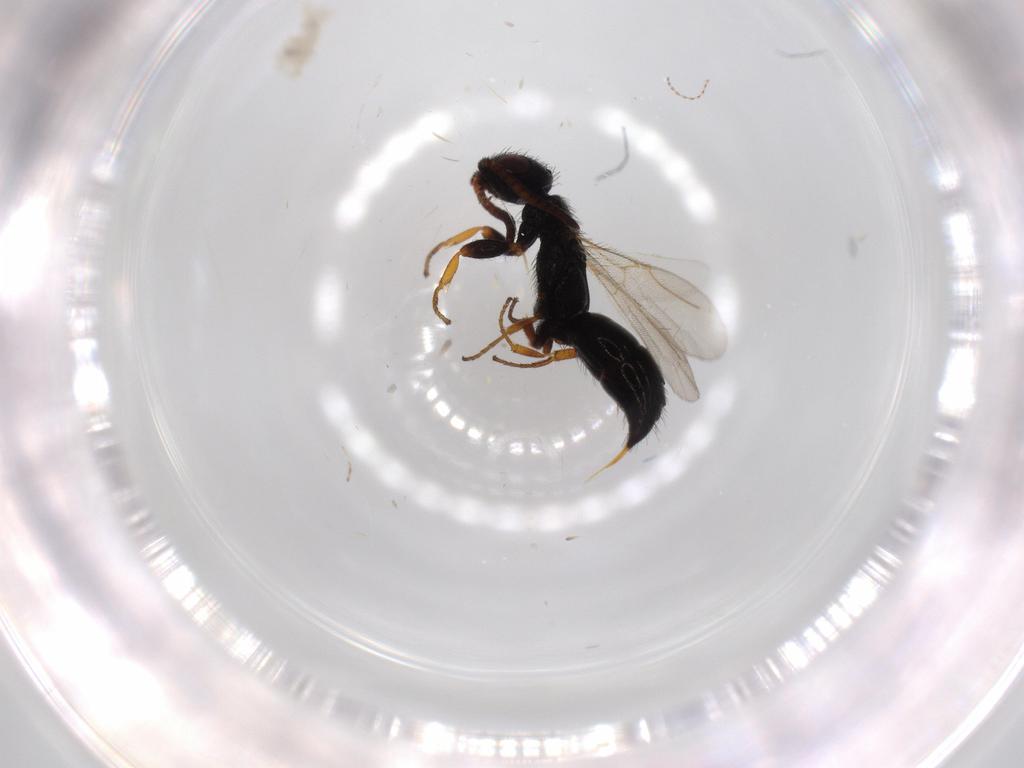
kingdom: Animalia
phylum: Arthropoda
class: Insecta
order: Hymenoptera
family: Bethylidae
